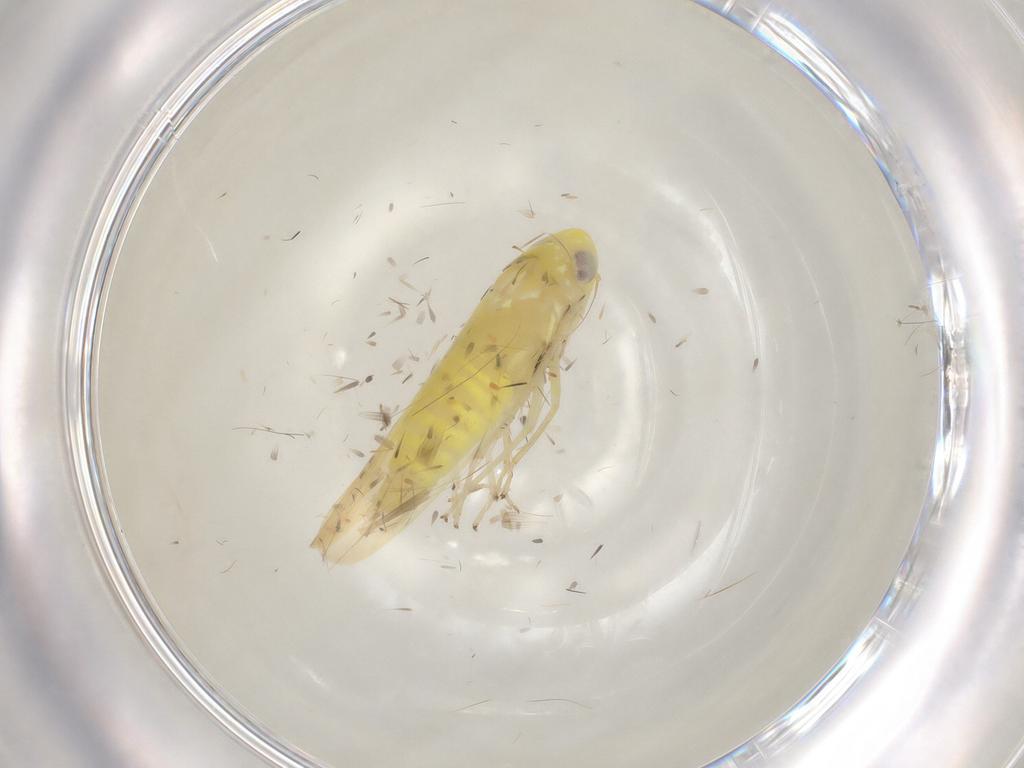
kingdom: Animalia
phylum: Arthropoda
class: Insecta
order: Hemiptera
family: Cicadellidae
